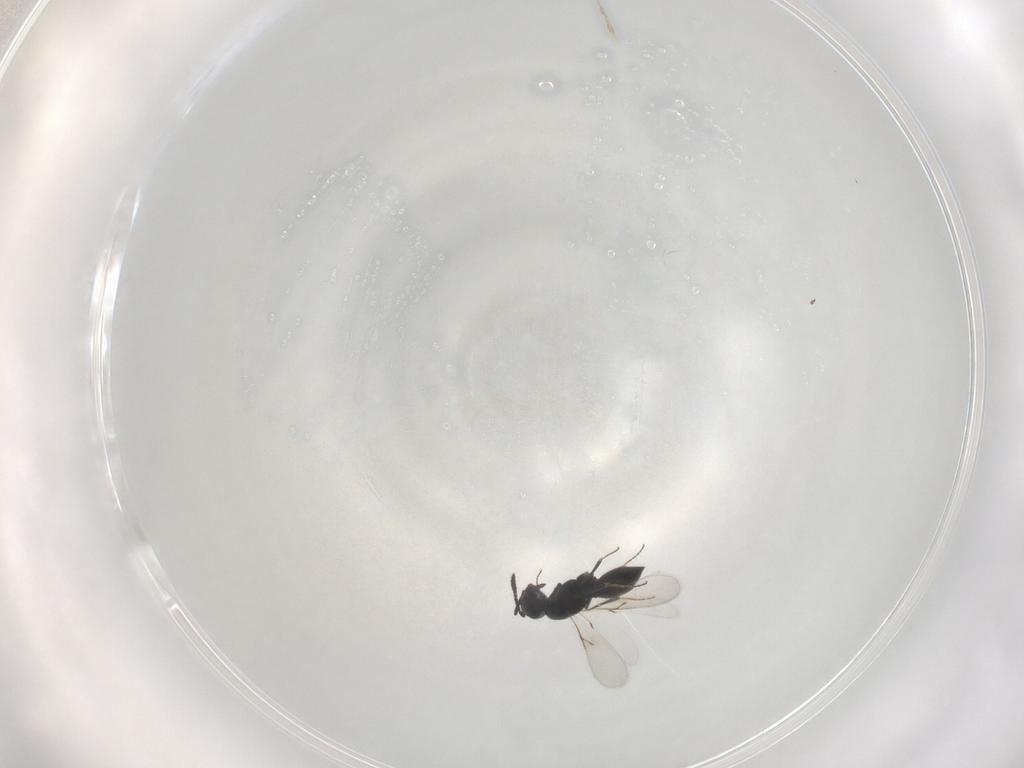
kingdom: Animalia
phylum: Arthropoda
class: Insecta
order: Hymenoptera
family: Scelionidae
